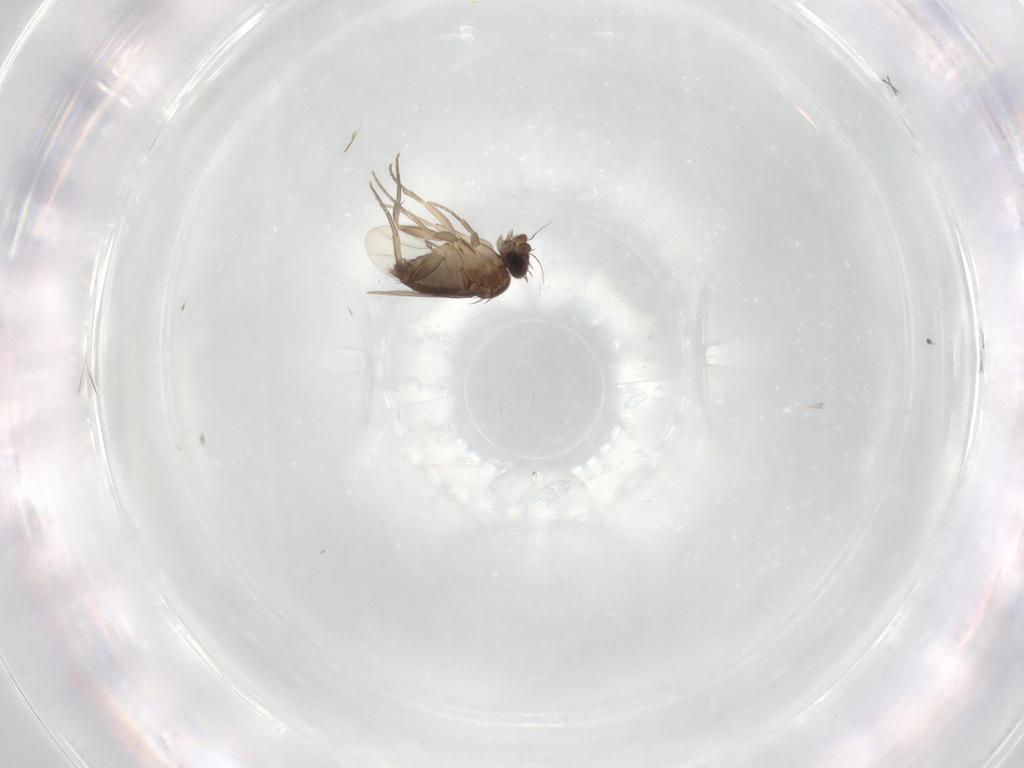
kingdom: Animalia
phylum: Arthropoda
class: Insecta
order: Diptera
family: Phoridae
